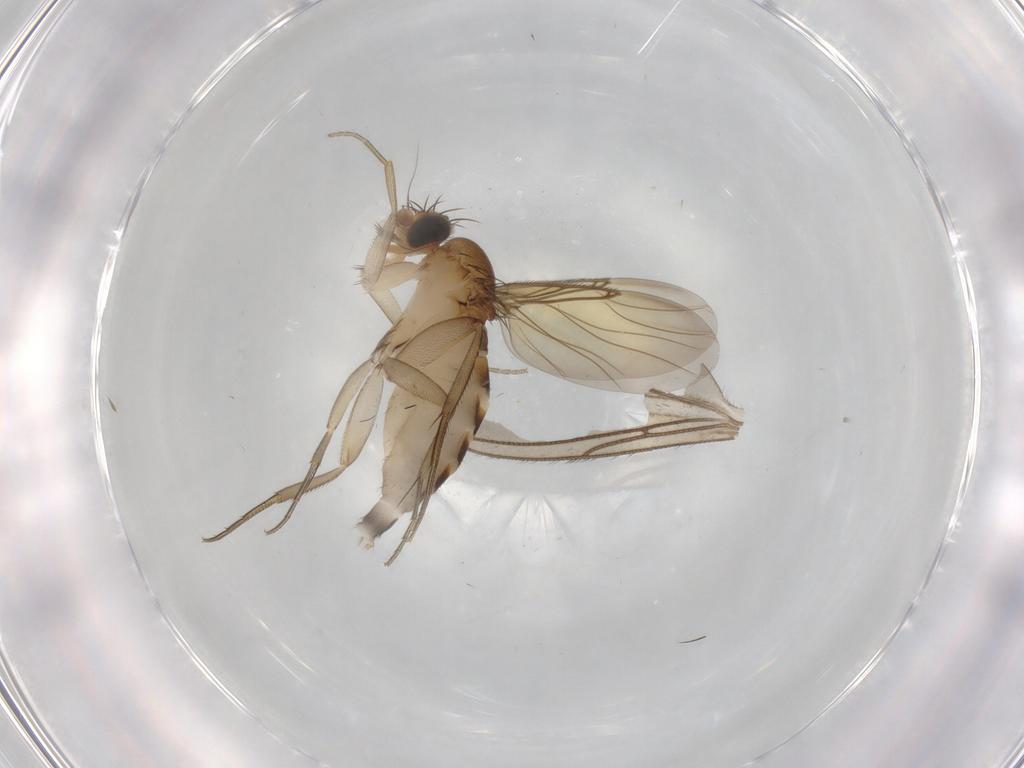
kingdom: Animalia
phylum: Arthropoda
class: Insecta
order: Diptera
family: Phoridae
